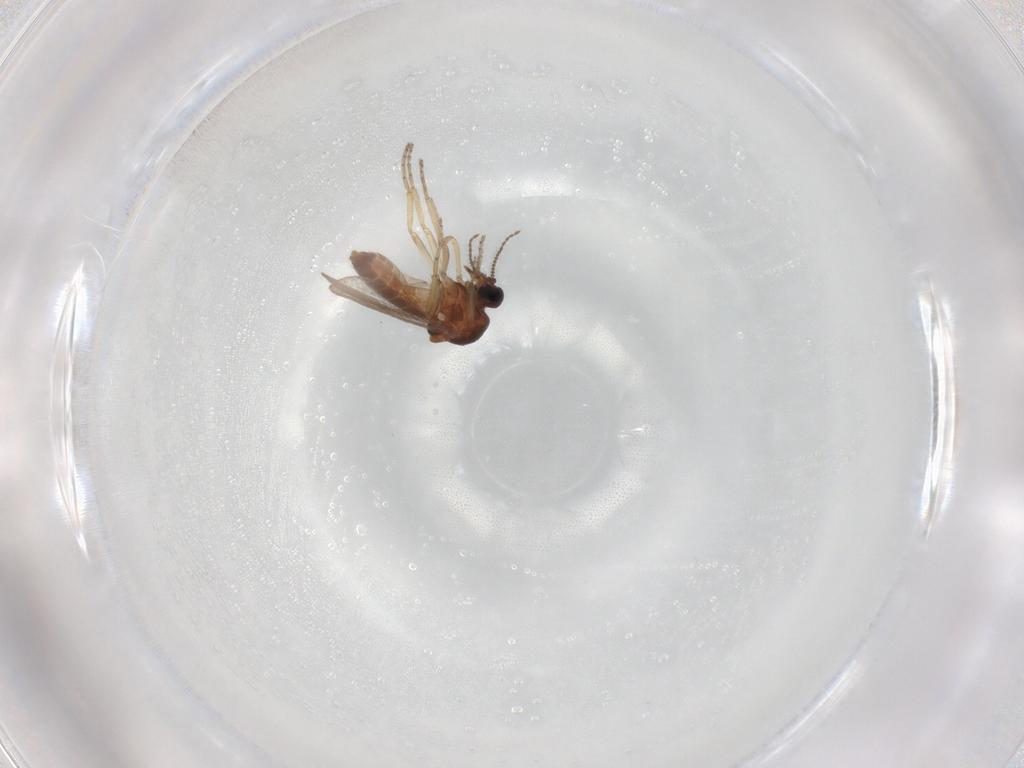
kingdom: Animalia
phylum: Arthropoda
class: Insecta
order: Diptera
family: Ceratopogonidae
